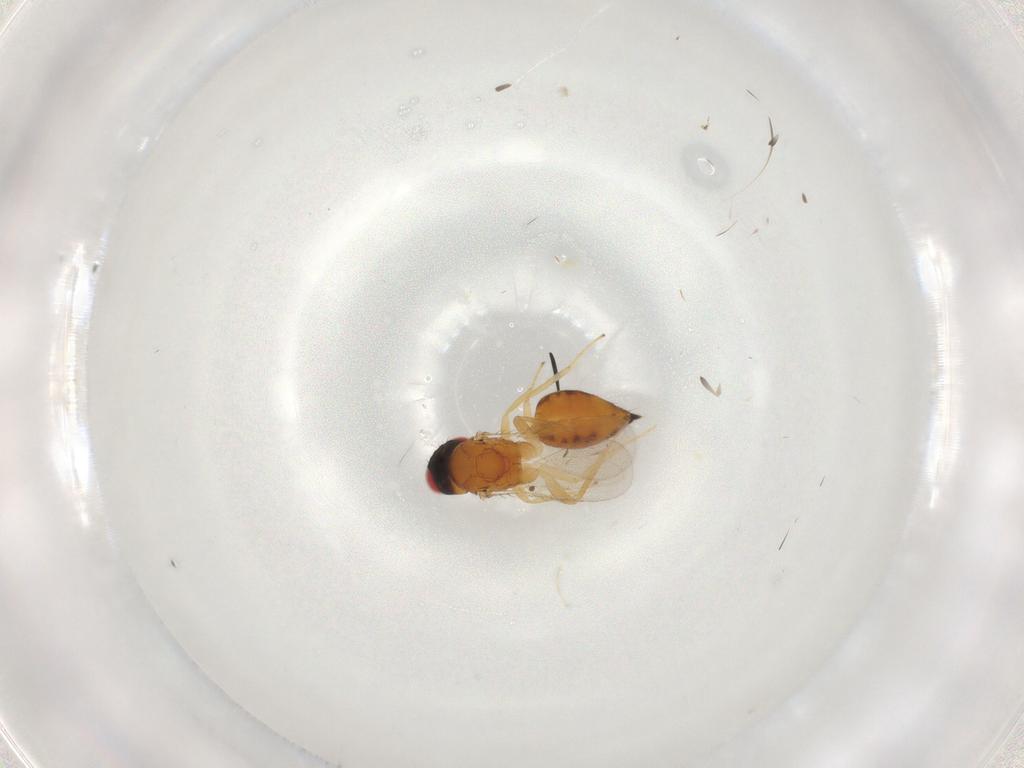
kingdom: Animalia
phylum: Arthropoda
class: Insecta
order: Hymenoptera
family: Eulophidae
